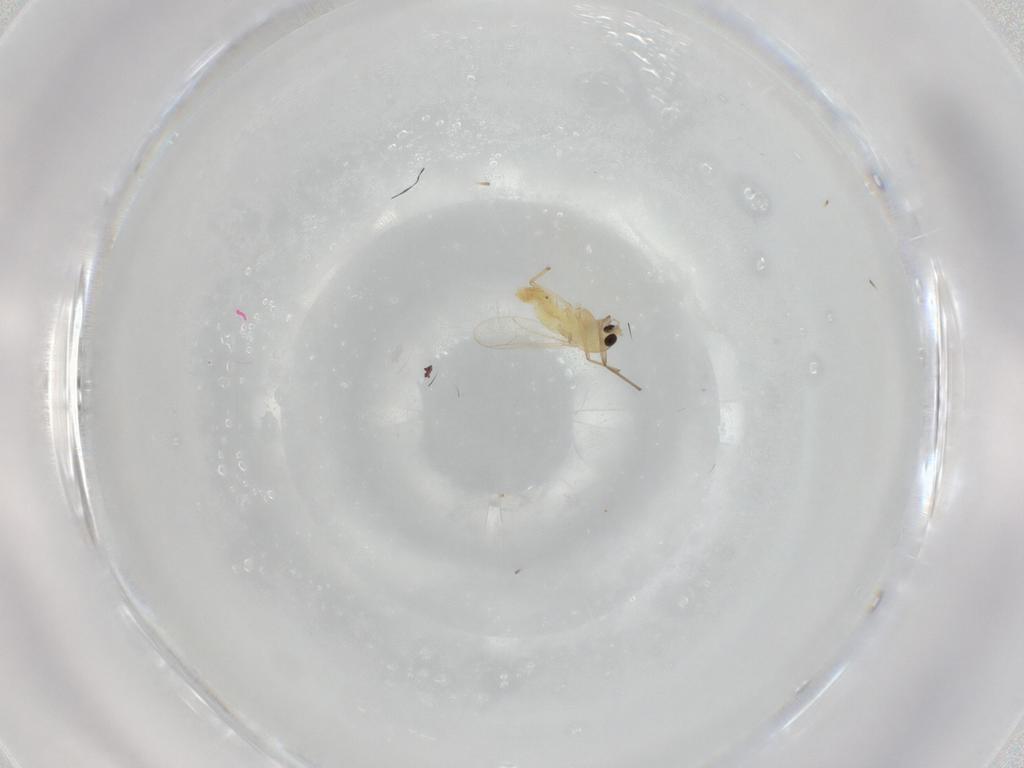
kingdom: Animalia
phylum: Arthropoda
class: Insecta
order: Diptera
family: Chironomidae
